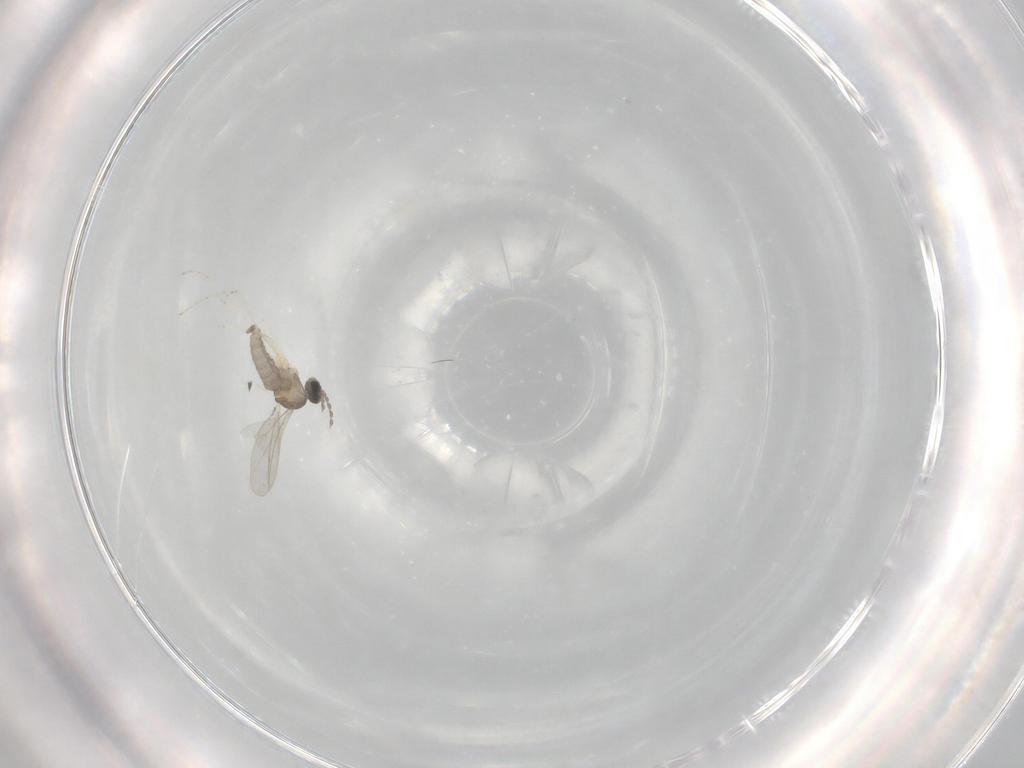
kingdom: Animalia
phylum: Arthropoda
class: Insecta
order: Diptera
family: Cecidomyiidae
